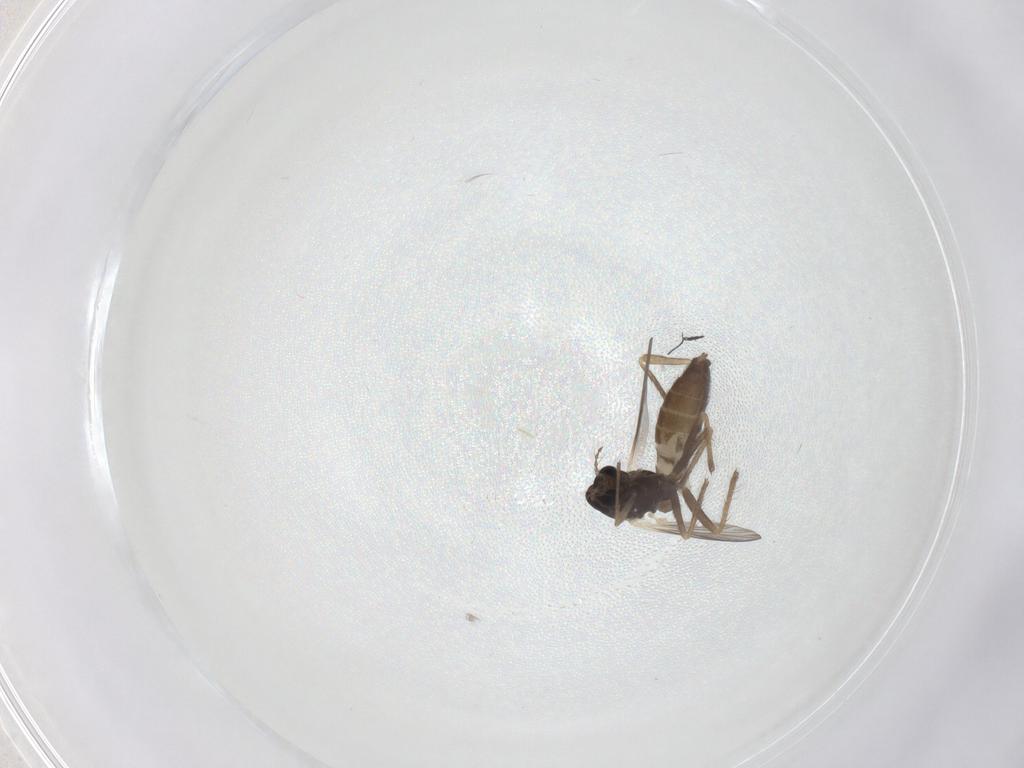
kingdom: Animalia
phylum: Arthropoda
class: Insecta
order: Diptera
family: Chironomidae
